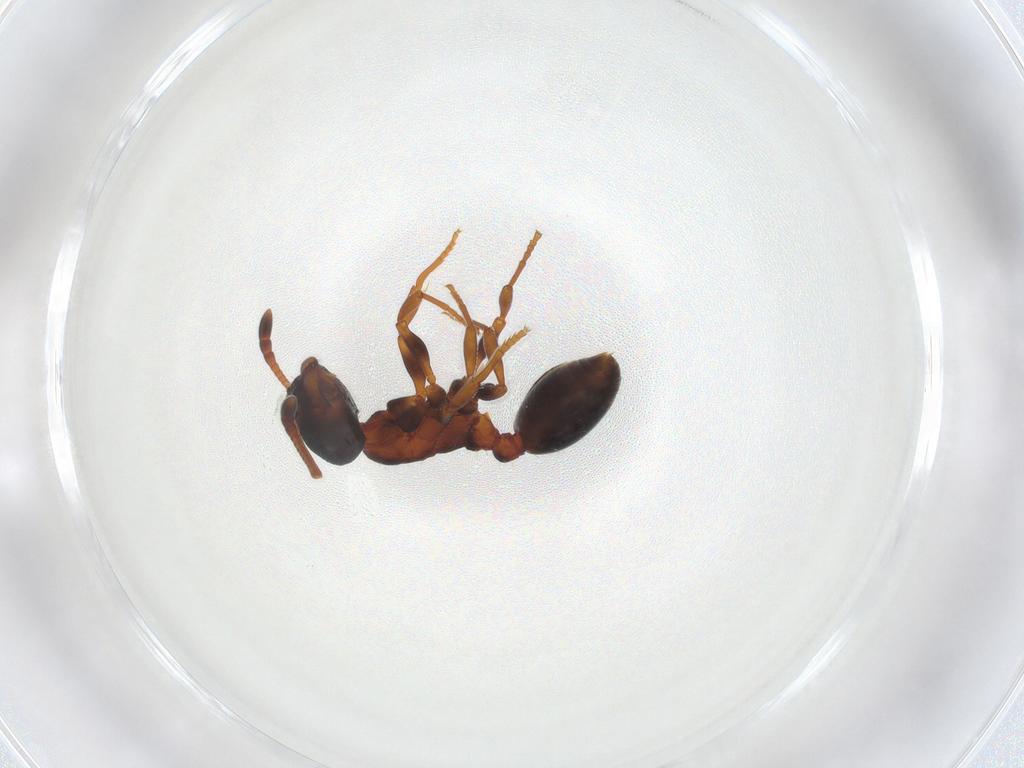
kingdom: Animalia
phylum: Arthropoda
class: Insecta
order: Hymenoptera
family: Formicidae
